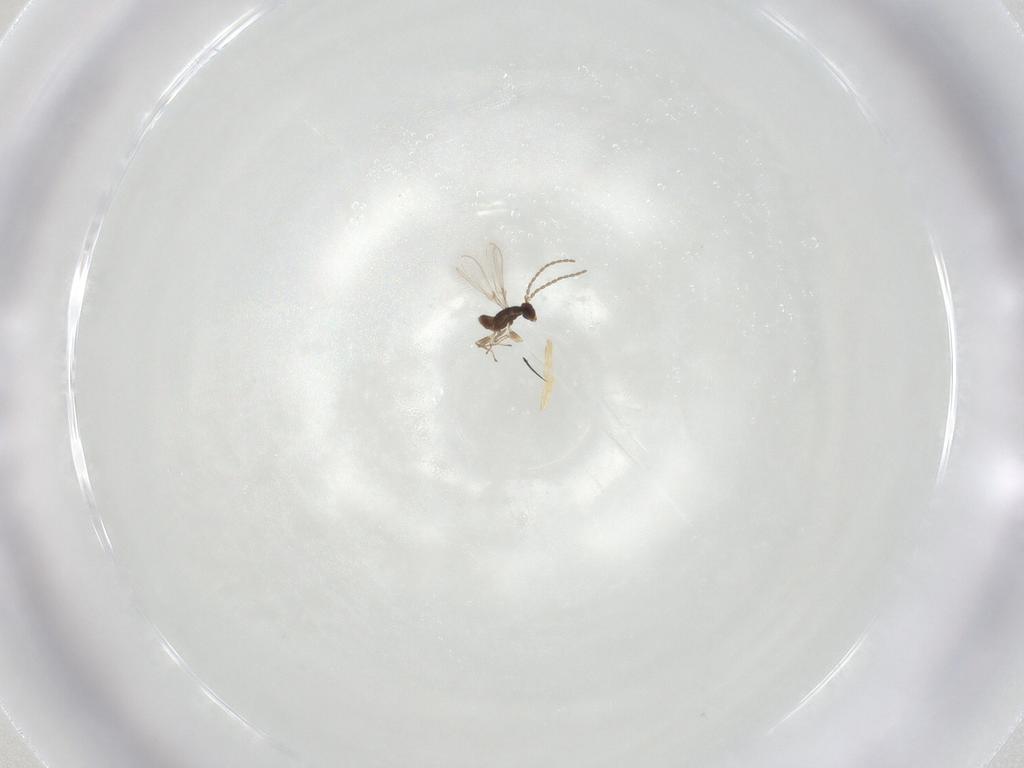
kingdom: Animalia
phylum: Arthropoda
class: Insecta
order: Hymenoptera
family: Mymaridae
